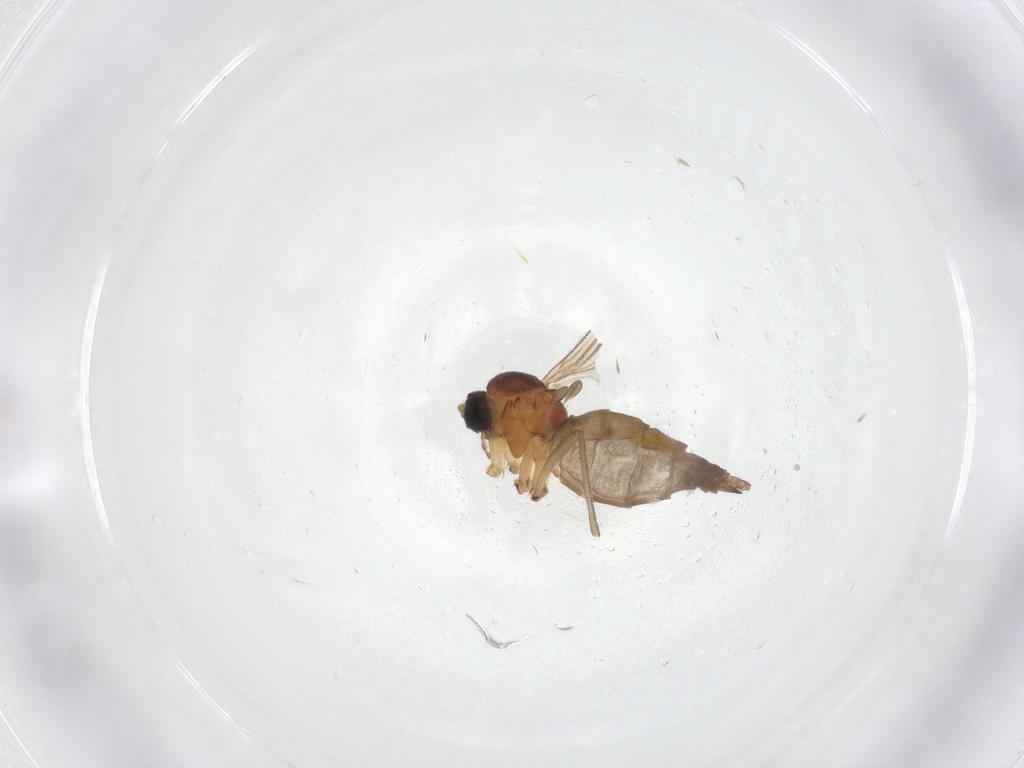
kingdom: Animalia
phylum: Arthropoda
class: Insecta
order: Diptera
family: Sciaridae
